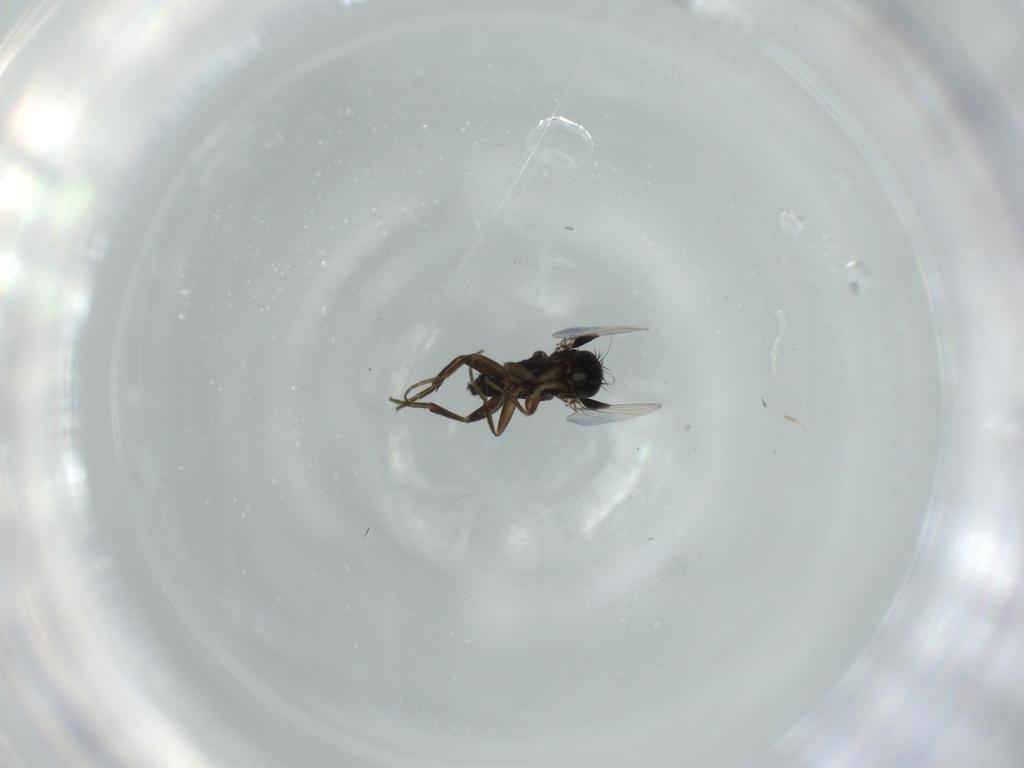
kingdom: Animalia
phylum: Arthropoda
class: Insecta
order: Diptera
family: Phoridae
